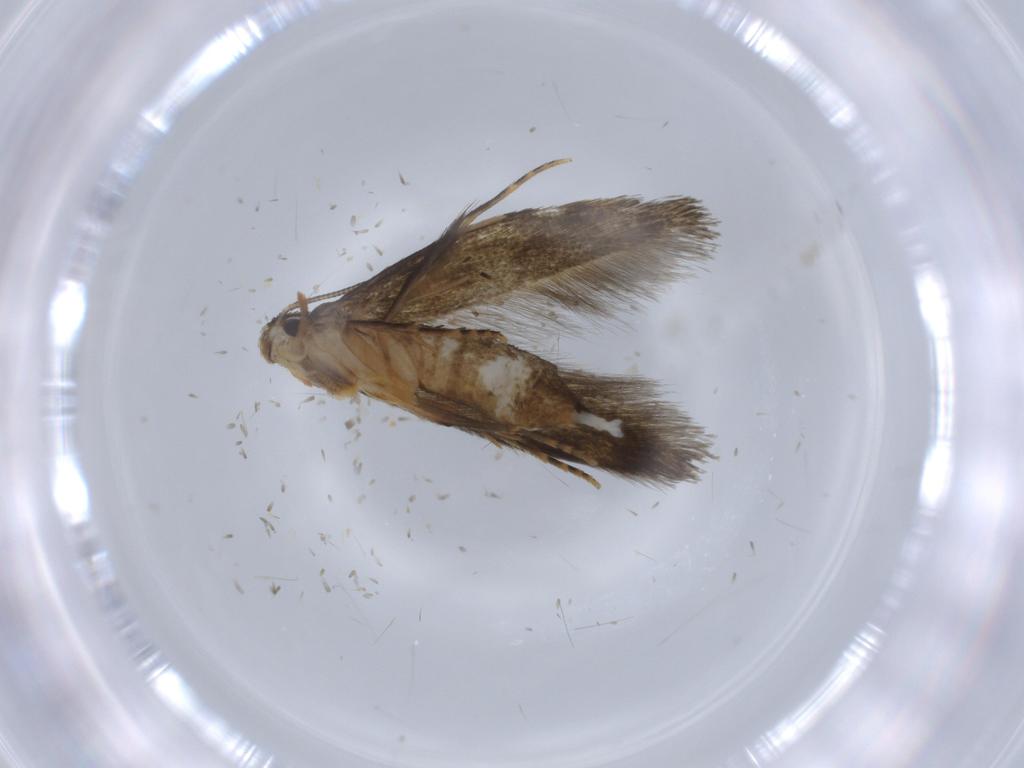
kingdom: Animalia
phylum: Arthropoda
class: Insecta
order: Lepidoptera
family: Tineidae
